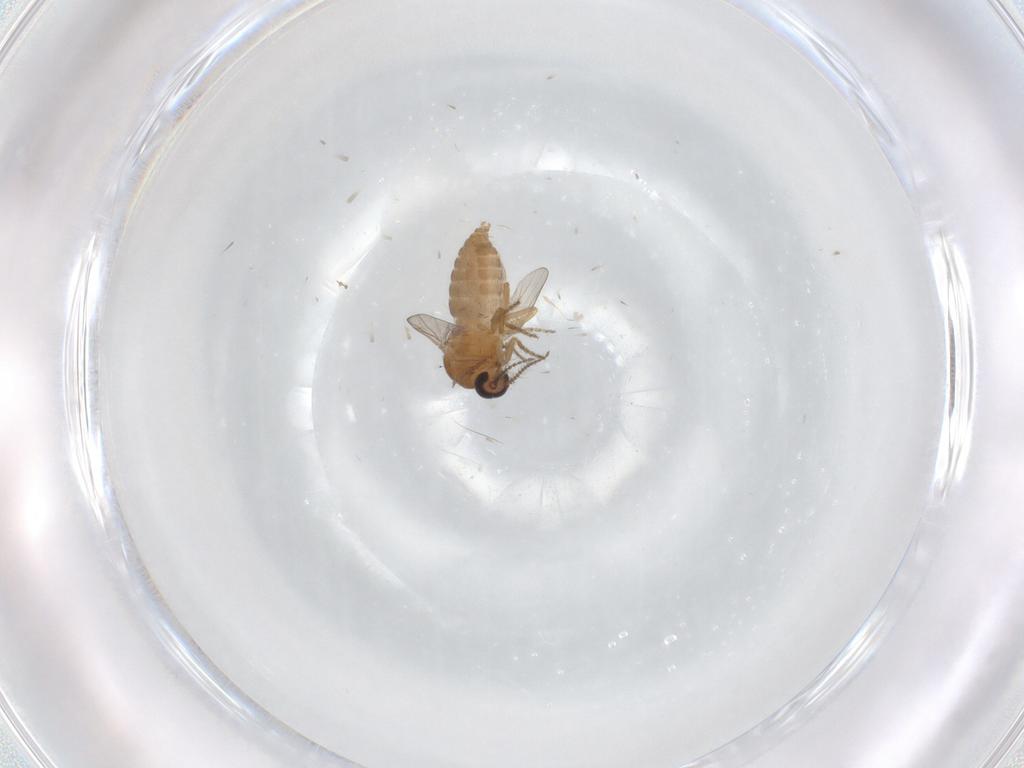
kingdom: Animalia
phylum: Arthropoda
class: Insecta
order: Diptera
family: Ceratopogonidae
